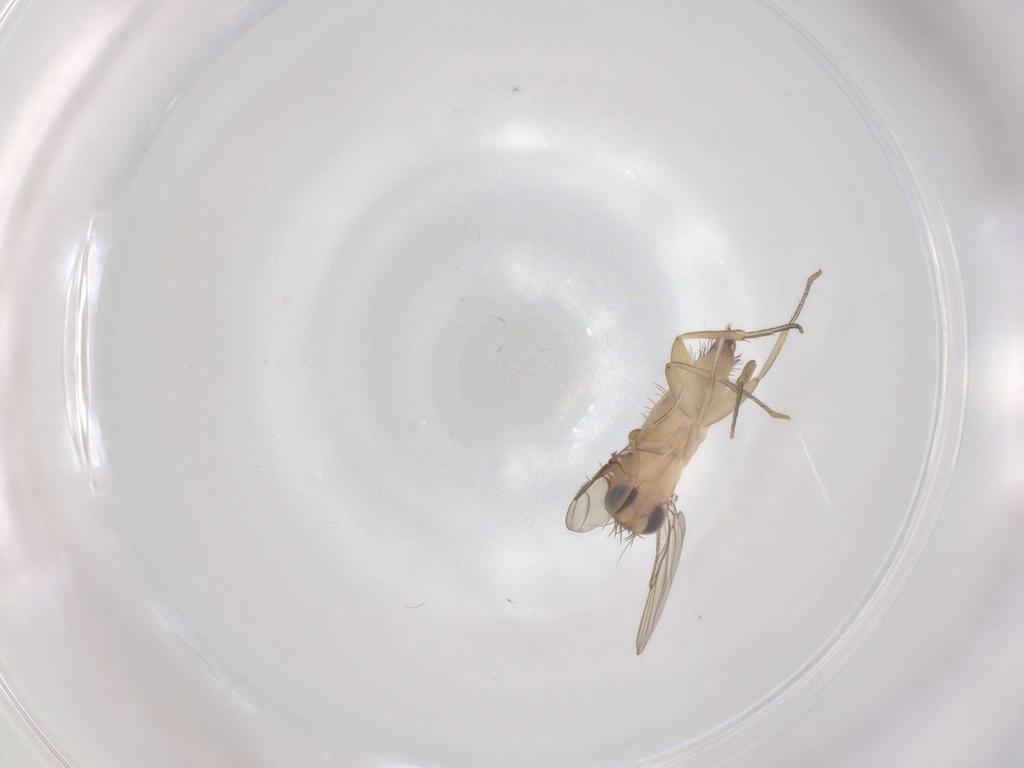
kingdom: Animalia
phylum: Arthropoda
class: Insecta
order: Diptera
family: Phoridae
